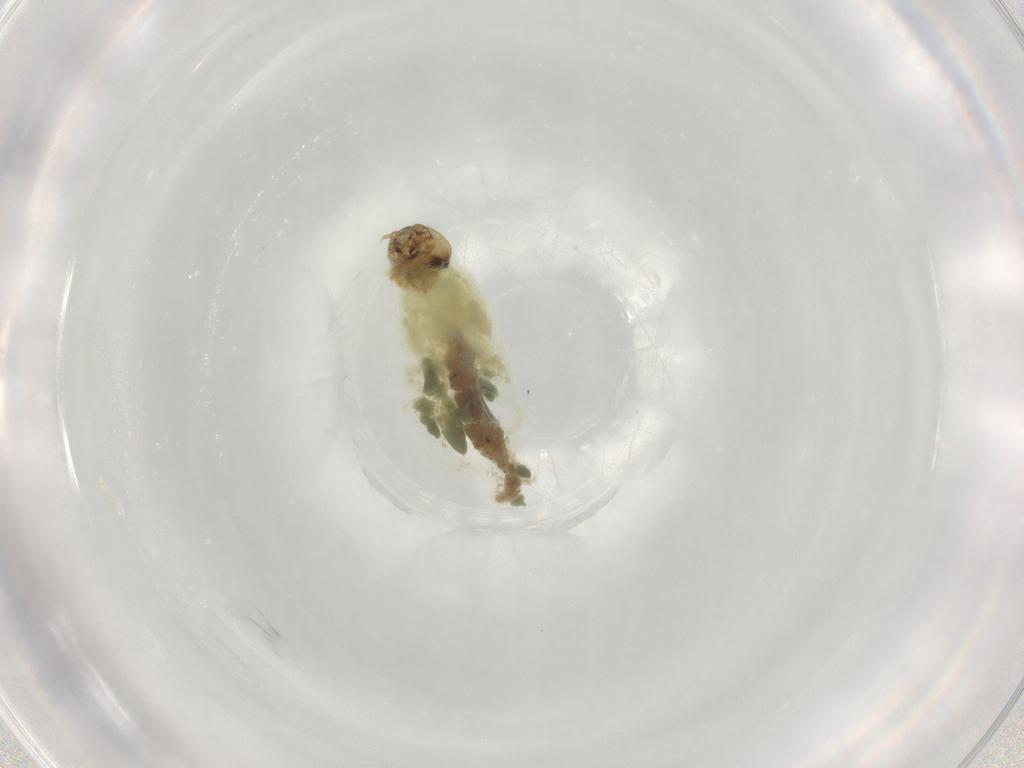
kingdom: Animalia
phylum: Arthropoda
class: Insecta
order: Diptera
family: Chironomidae
